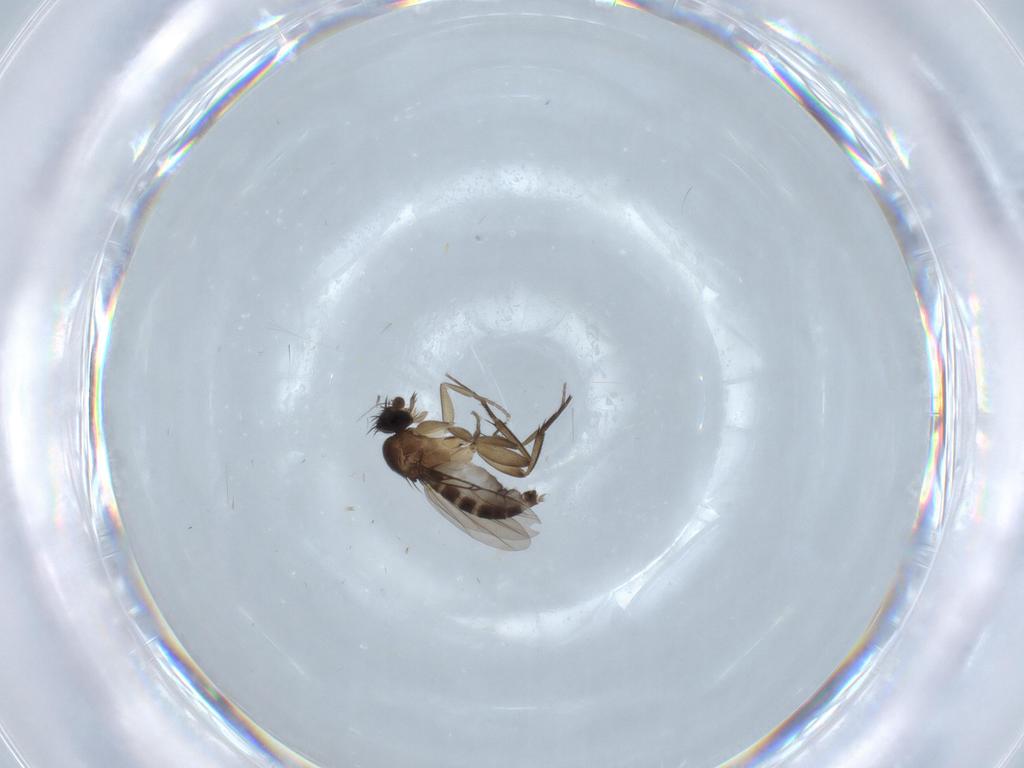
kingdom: Animalia
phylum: Arthropoda
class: Insecta
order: Diptera
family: Phoridae
